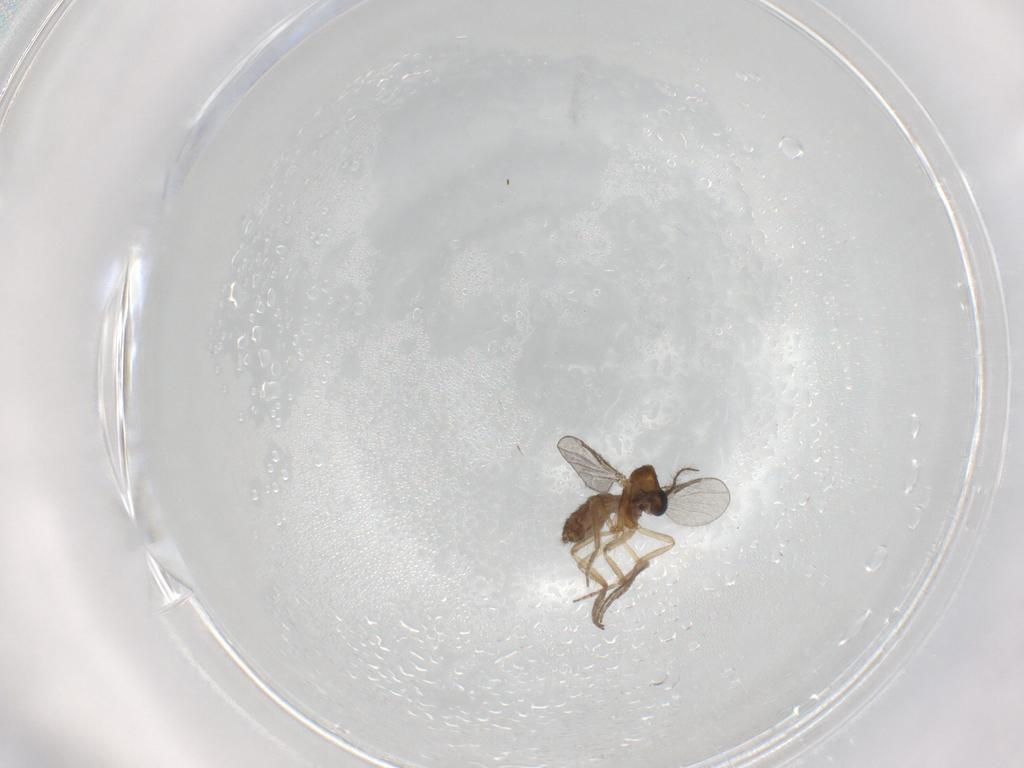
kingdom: Animalia
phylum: Arthropoda
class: Insecta
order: Diptera
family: Ceratopogonidae
